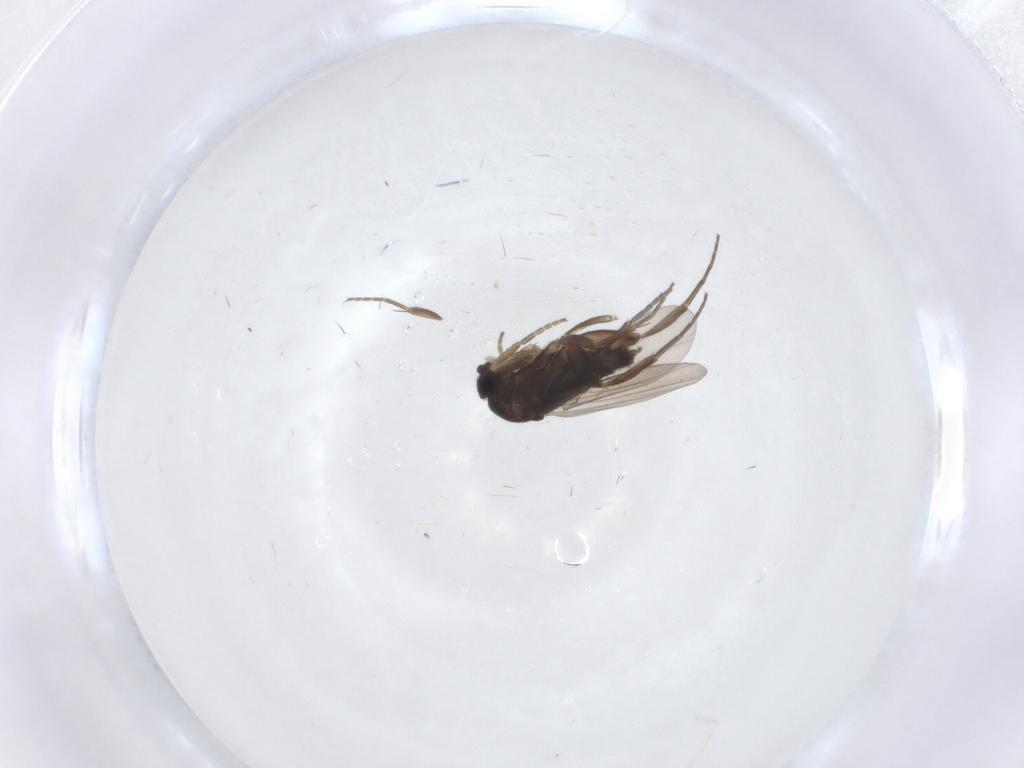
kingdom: Animalia
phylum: Arthropoda
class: Insecta
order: Diptera
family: Phoridae
